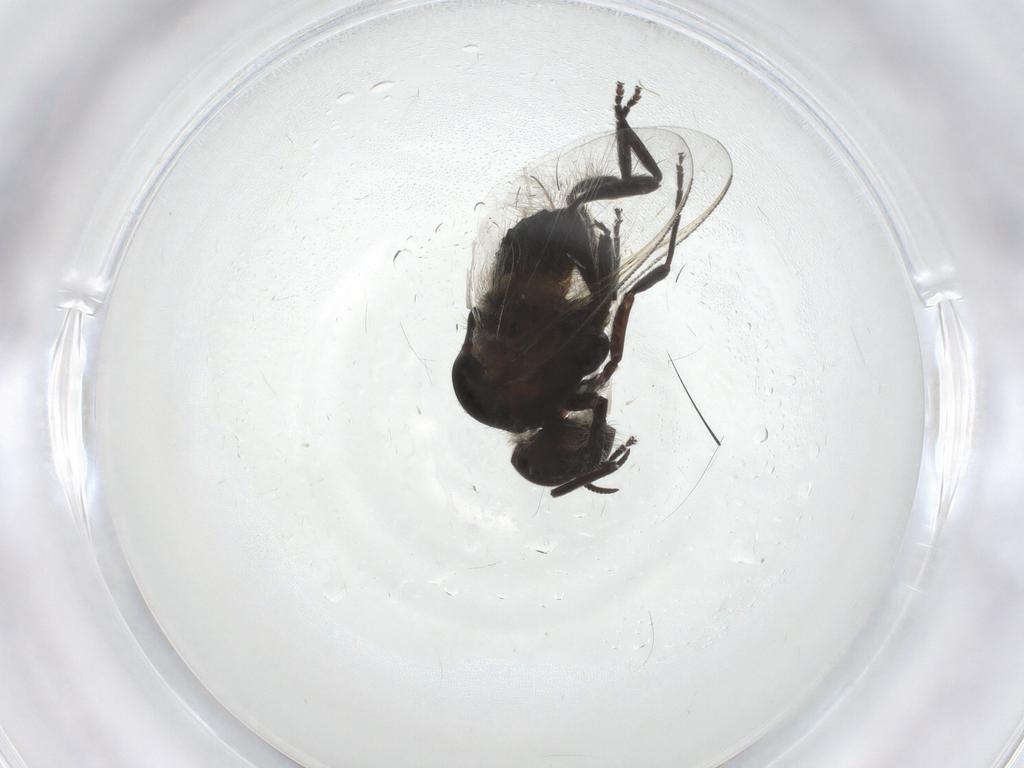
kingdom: Animalia
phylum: Arthropoda
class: Insecta
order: Diptera
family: Simuliidae
